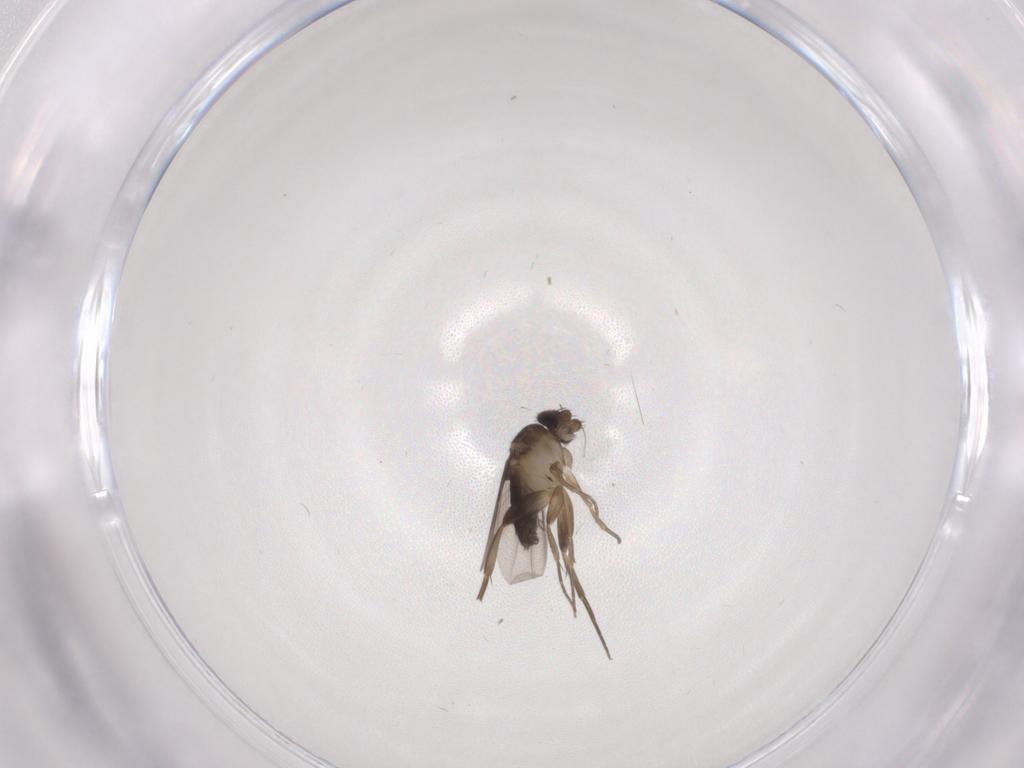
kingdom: Animalia
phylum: Arthropoda
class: Insecta
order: Diptera
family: Phoridae
